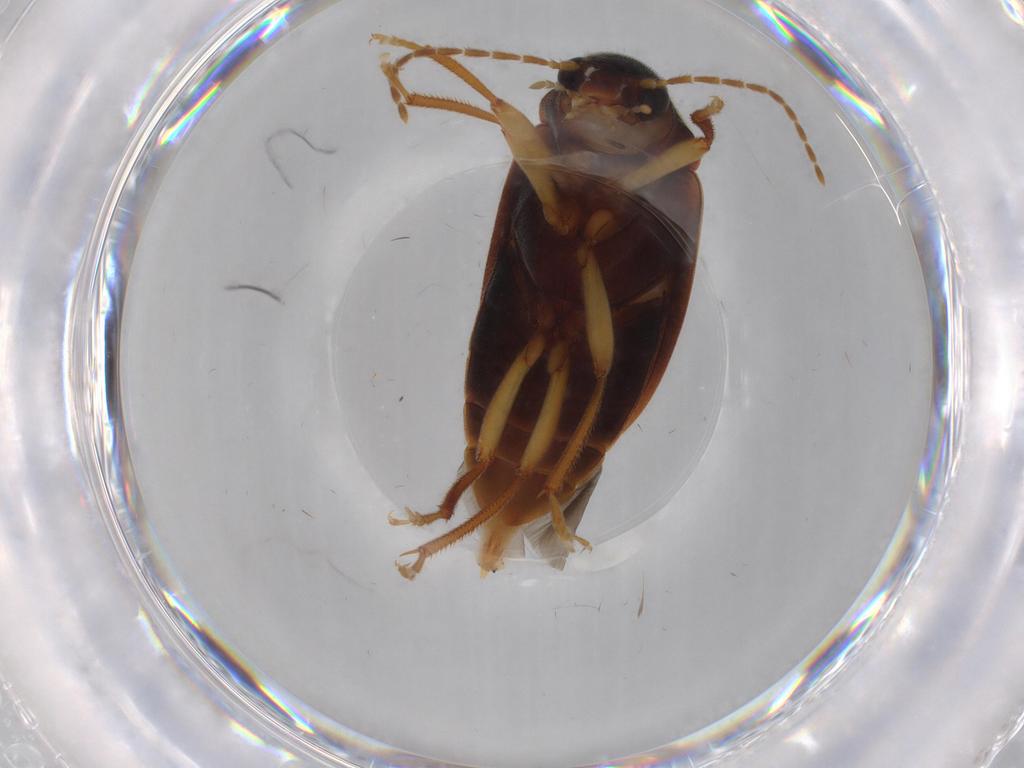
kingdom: Animalia
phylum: Arthropoda
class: Insecta
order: Coleoptera
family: Ptilodactylidae
